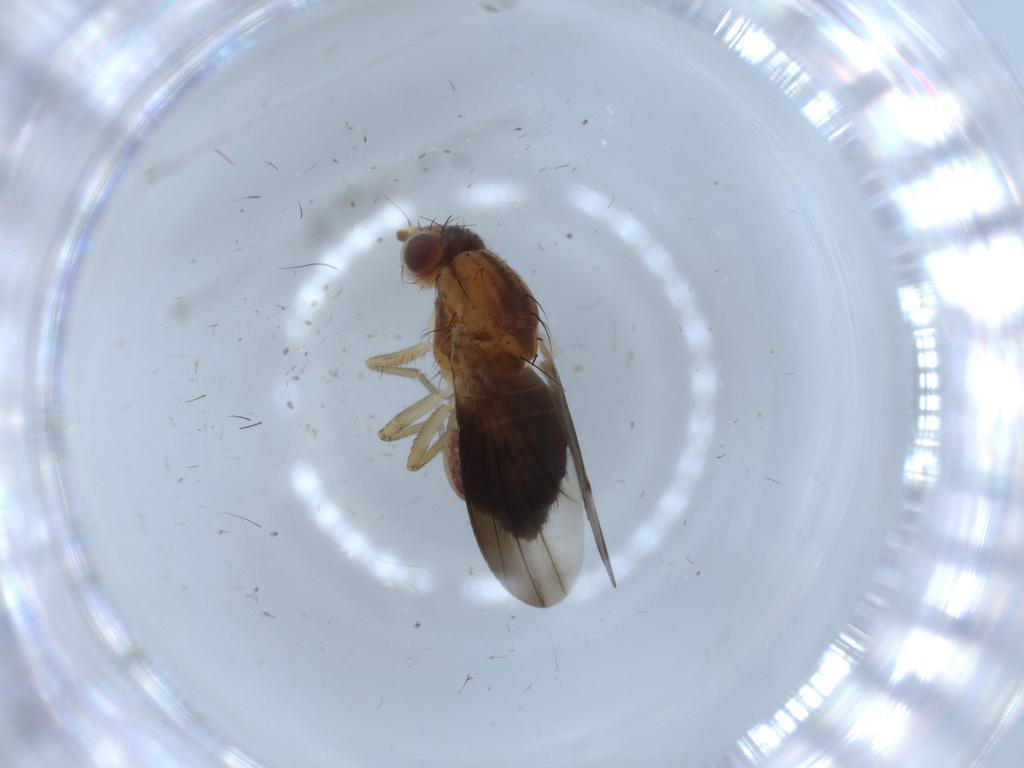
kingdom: Animalia
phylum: Arthropoda
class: Insecta
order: Diptera
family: Heleomyzidae
